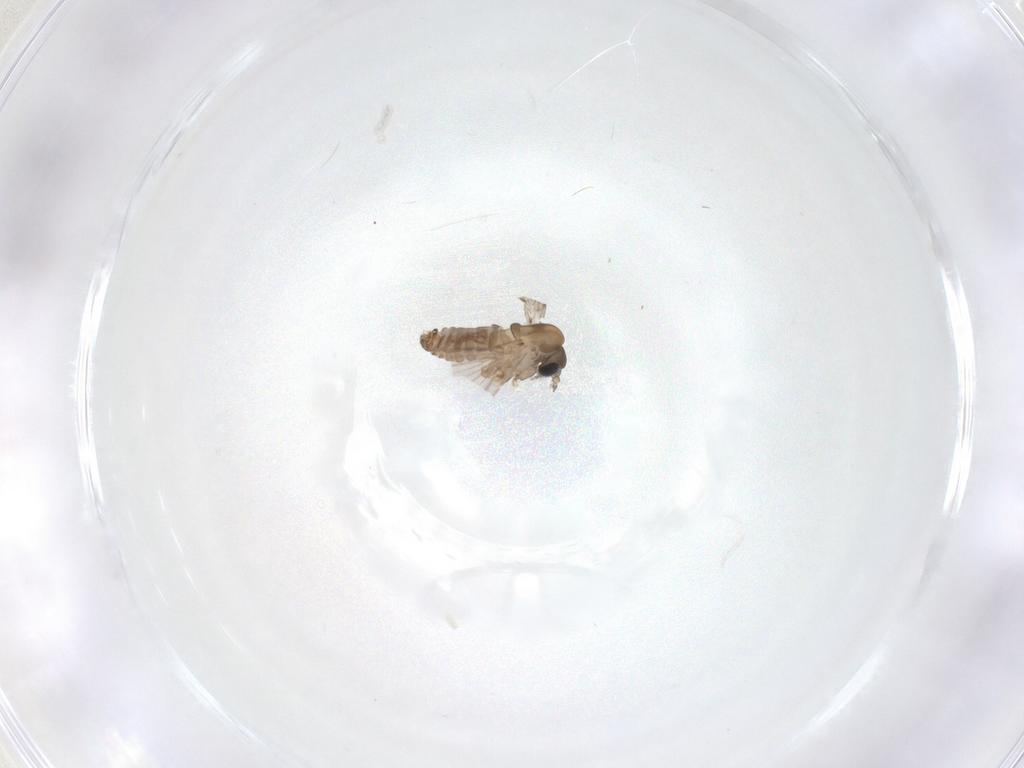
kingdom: Animalia
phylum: Arthropoda
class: Insecta
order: Diptera
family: Psychodidae
